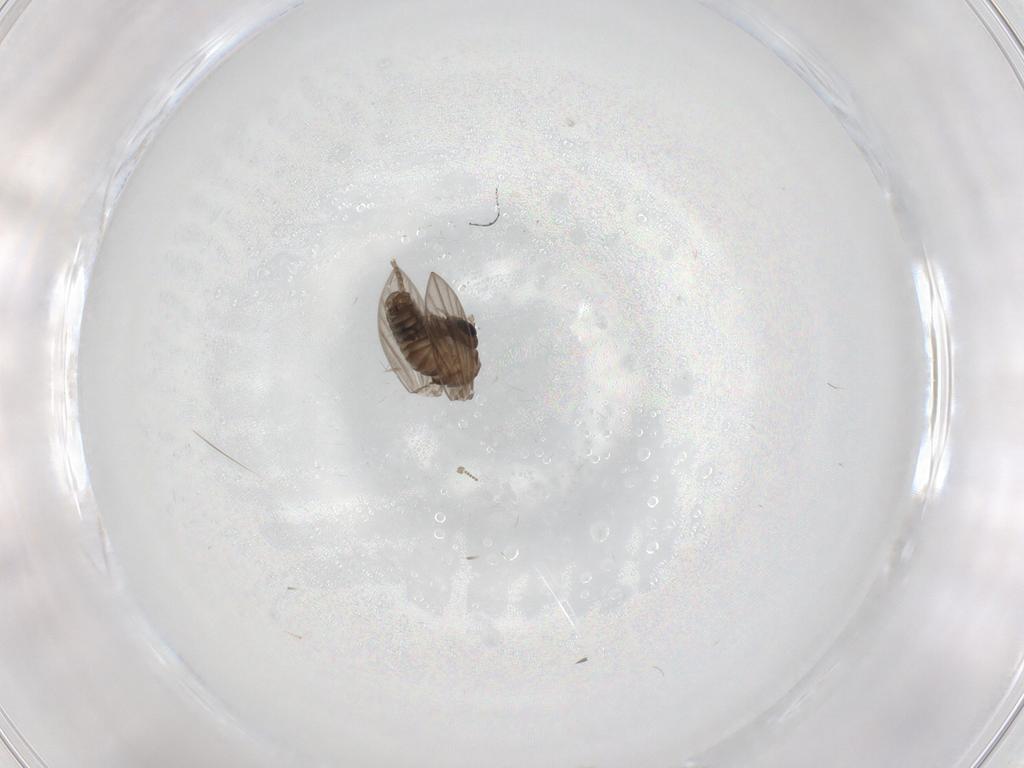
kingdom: Animalia
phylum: Arthropoda
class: Insecta
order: Diptera
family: Psychodidae
